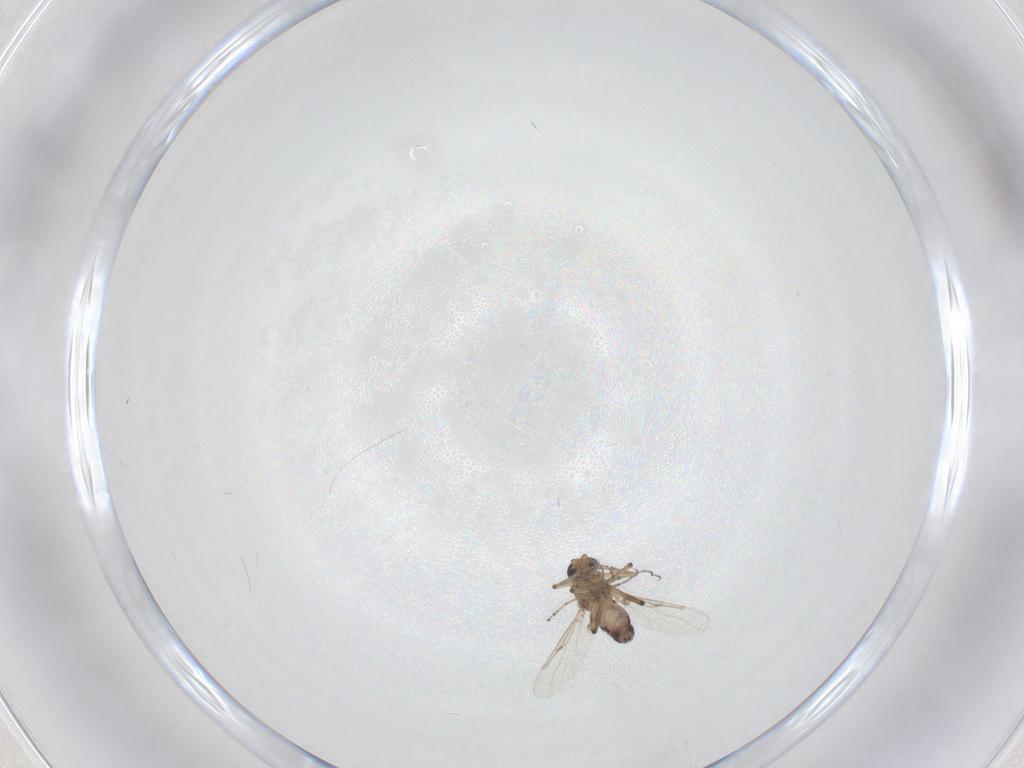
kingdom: Animalia
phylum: Arthropoda
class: Insecta
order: Diptera
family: Ceratopogonidae
